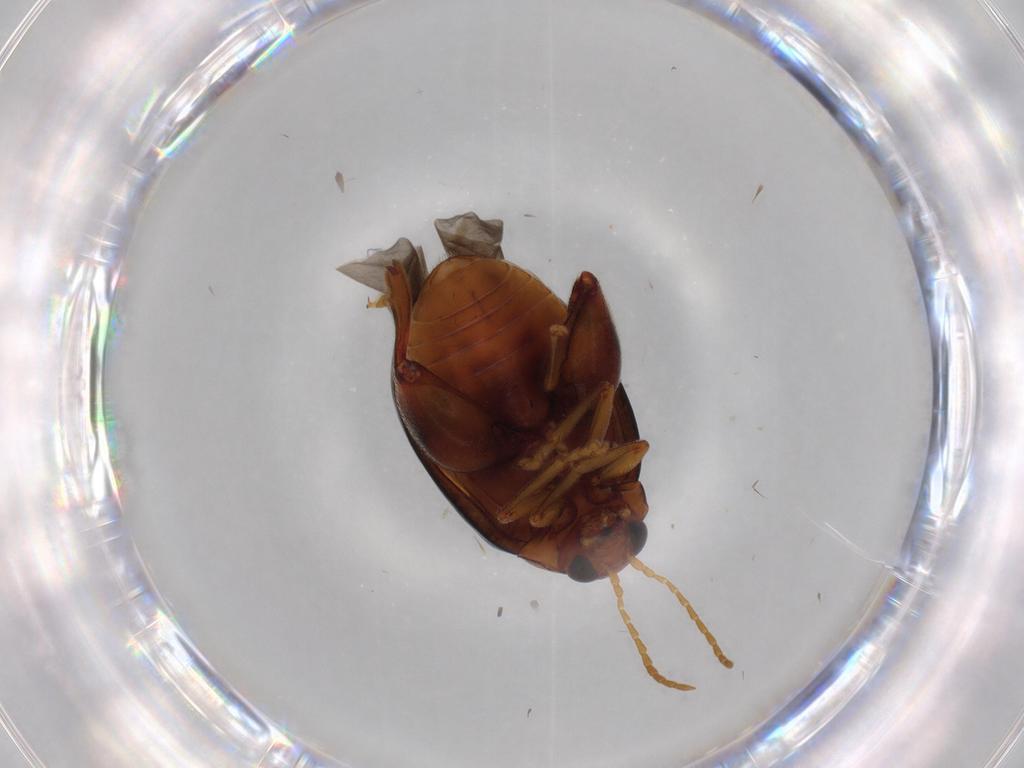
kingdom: Animalia
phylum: Arthropoda
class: Insecta
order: Coleoptera
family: Chrysomelidae
